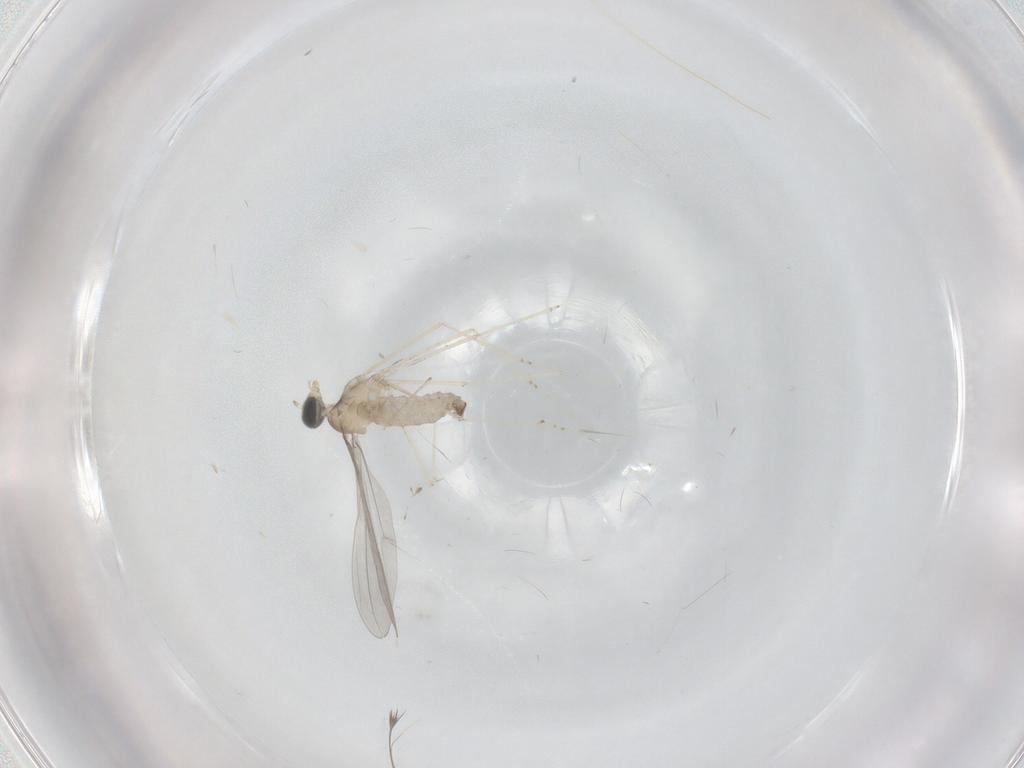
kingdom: Animalia
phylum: Arthropoda
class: Insecta
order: Diptera
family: Cecidomyiidae
